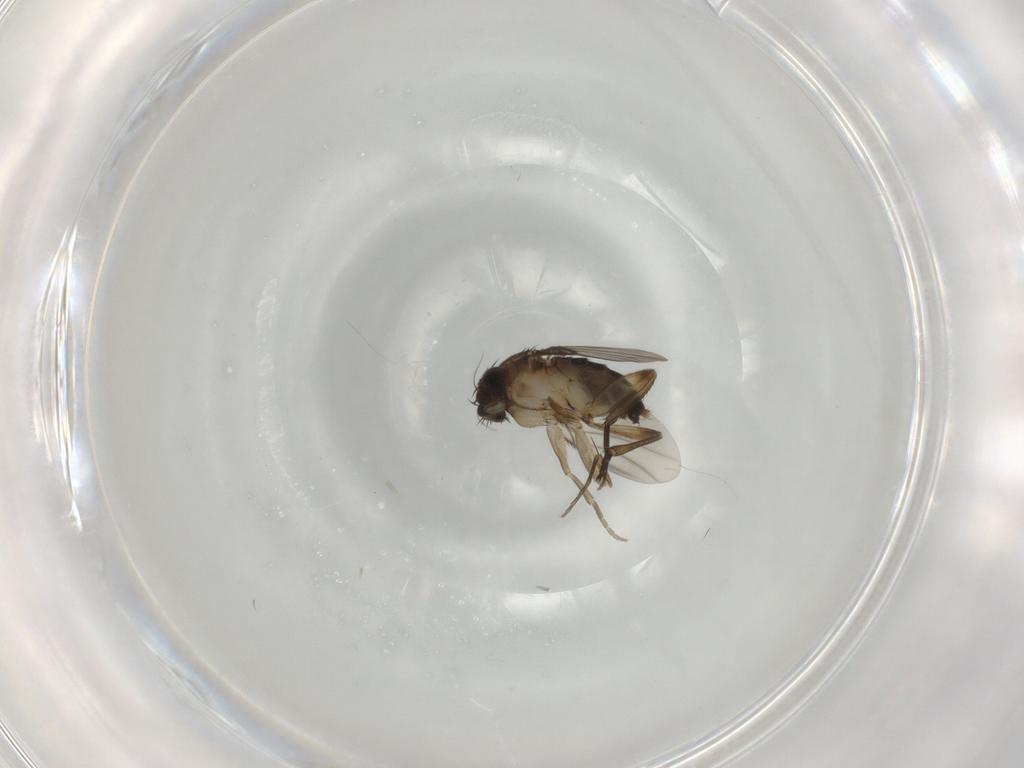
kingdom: Animalia
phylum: Arthropoda
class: Insecta
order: Diptera
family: Phoridae
